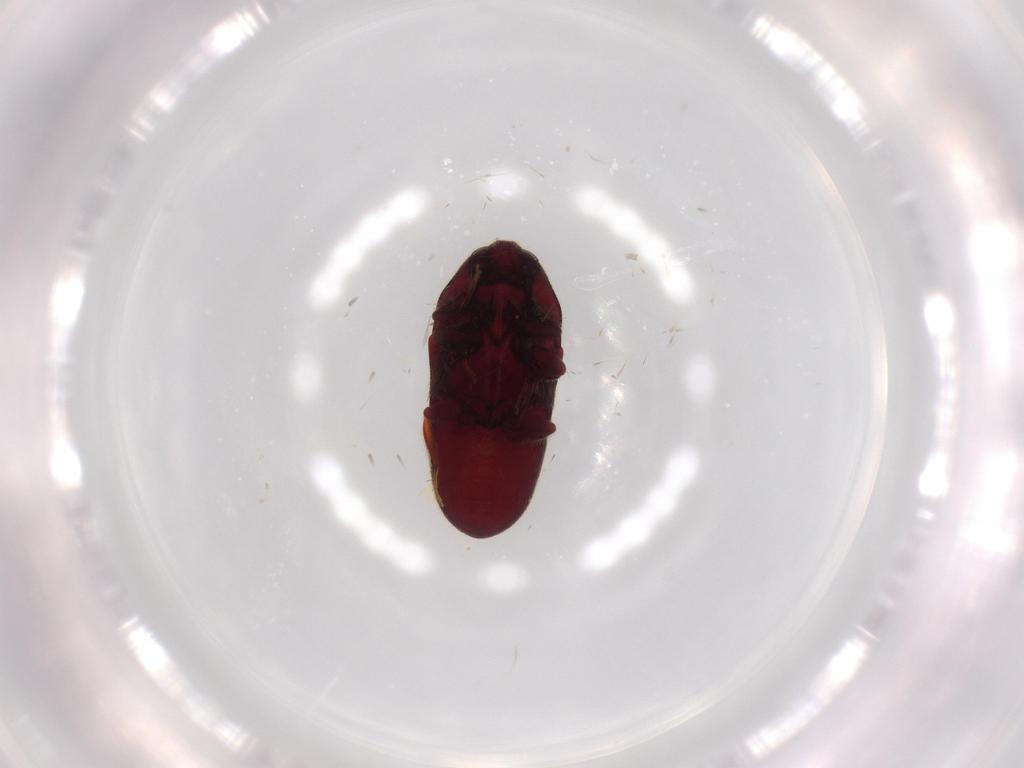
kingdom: Animalia
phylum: Arthropoda
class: Insecta
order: Coleoptera
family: Throscidae
